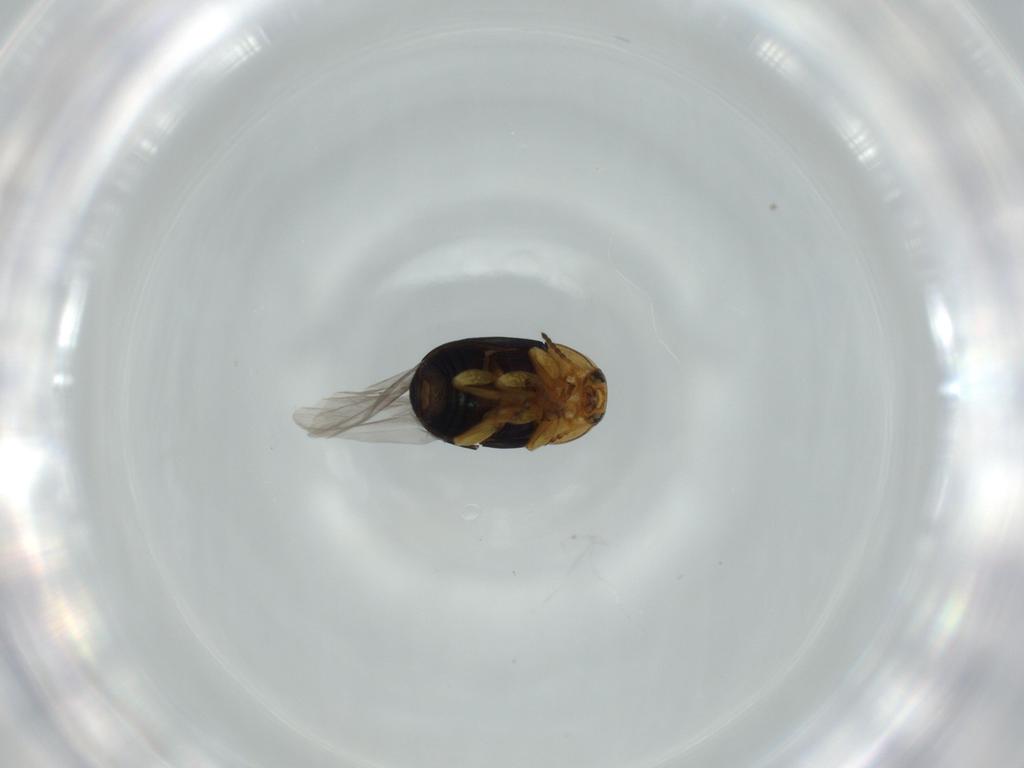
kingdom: Animalia
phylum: Arthropoda
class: Insecta
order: Coleoptera
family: Chrysomelidae
